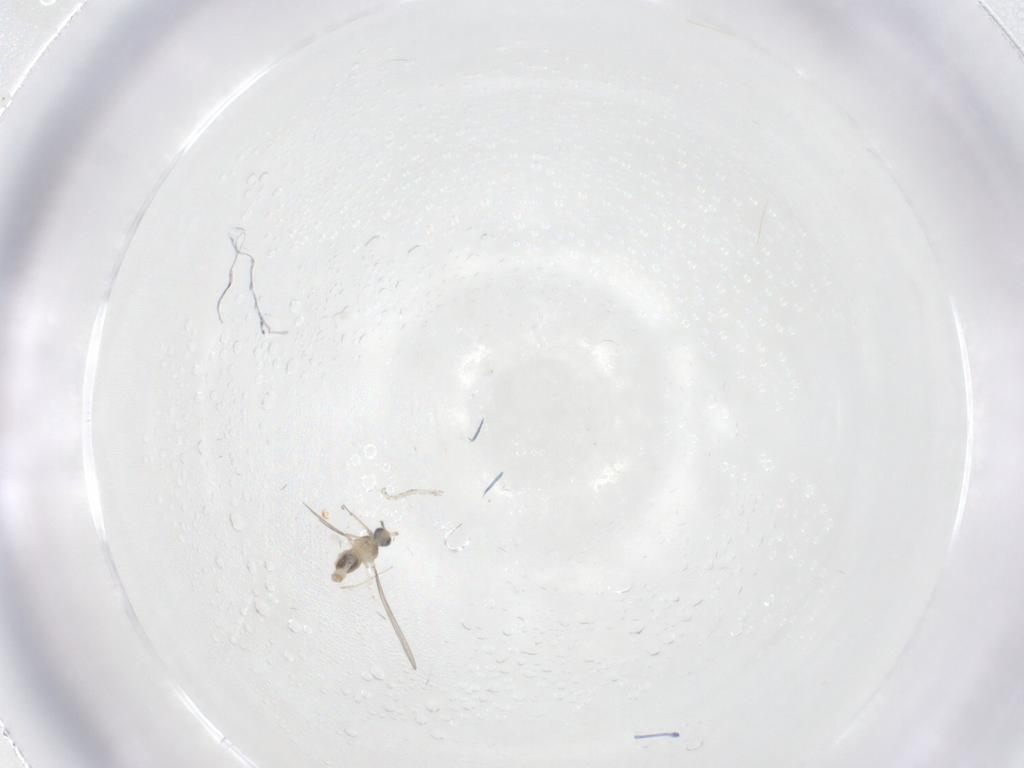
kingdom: Animalia
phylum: Arthropoda
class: Insecta
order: Diptera
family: Cecidomyiidae
